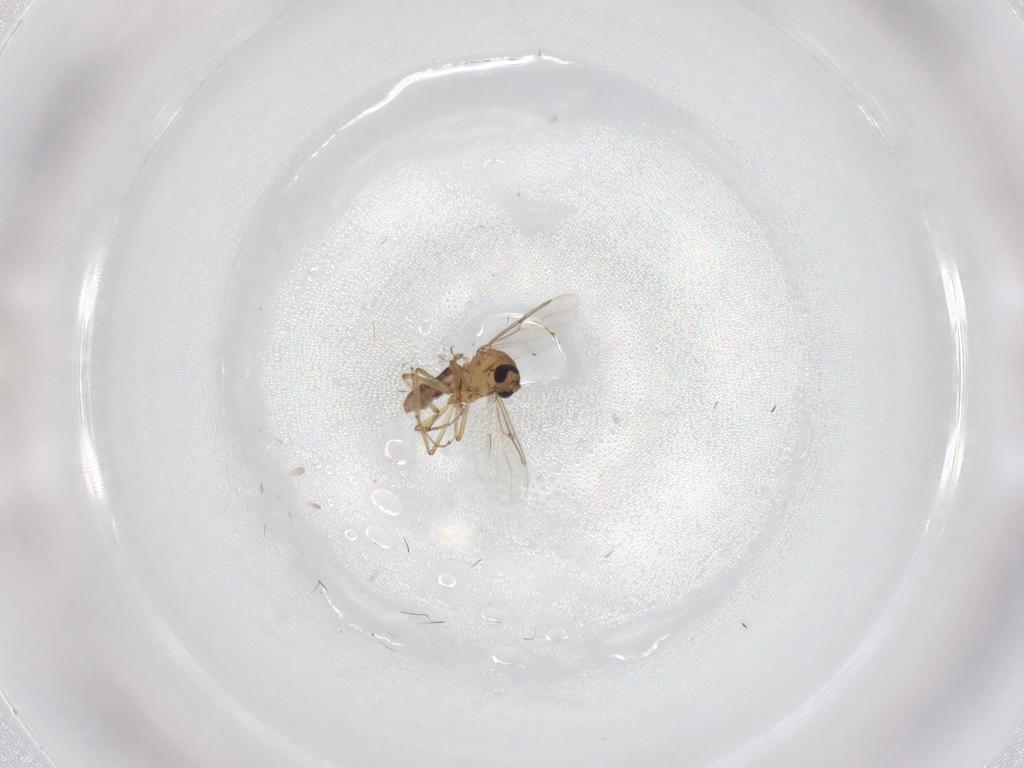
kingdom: Animalia
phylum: Arthropoda
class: Insecta
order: Diptera
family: Ceratopogonidae
